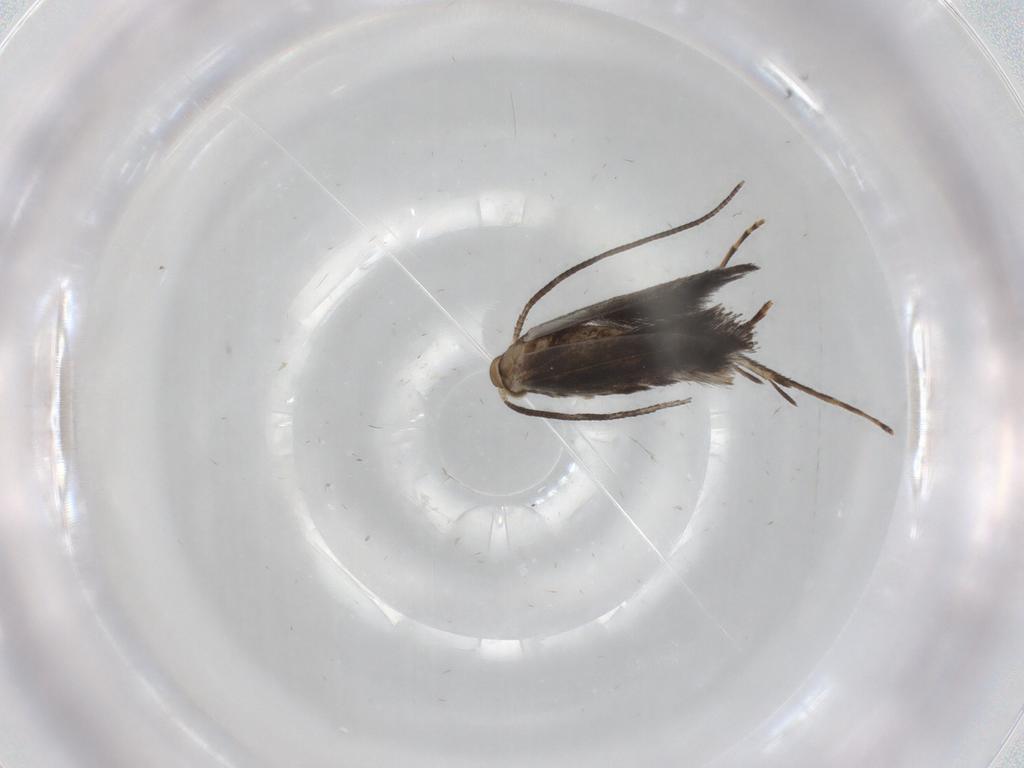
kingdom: Animalia
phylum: Arthropoda
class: Insecta
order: Lepidoptera
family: Gracillariidae
